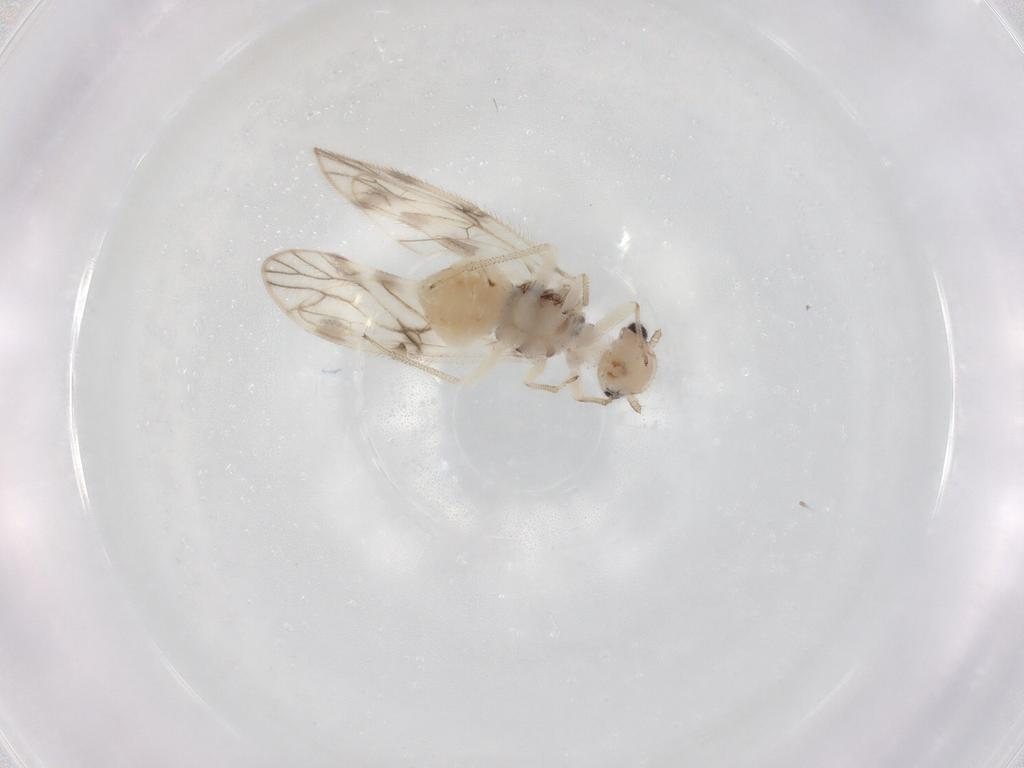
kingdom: Animalia
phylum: Arthropoda
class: Insecta
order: Psocodea
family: Caeciliusidae
